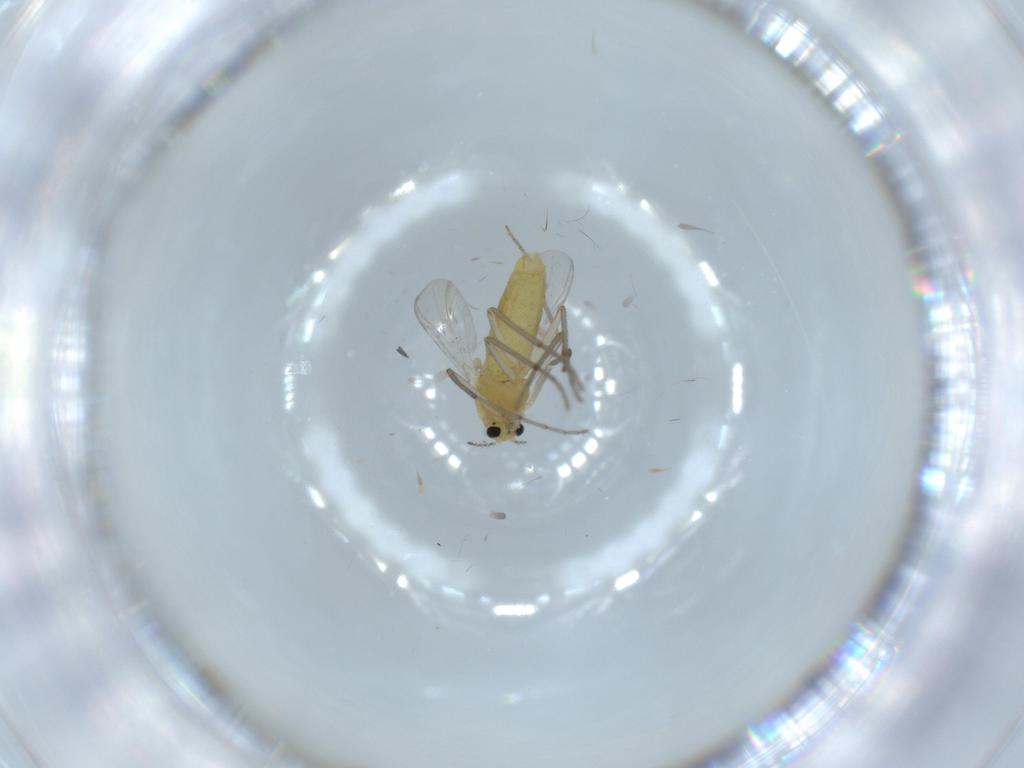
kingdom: Animalia
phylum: Arthropoda
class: Insecta
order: Diptera
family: Chironomidae
